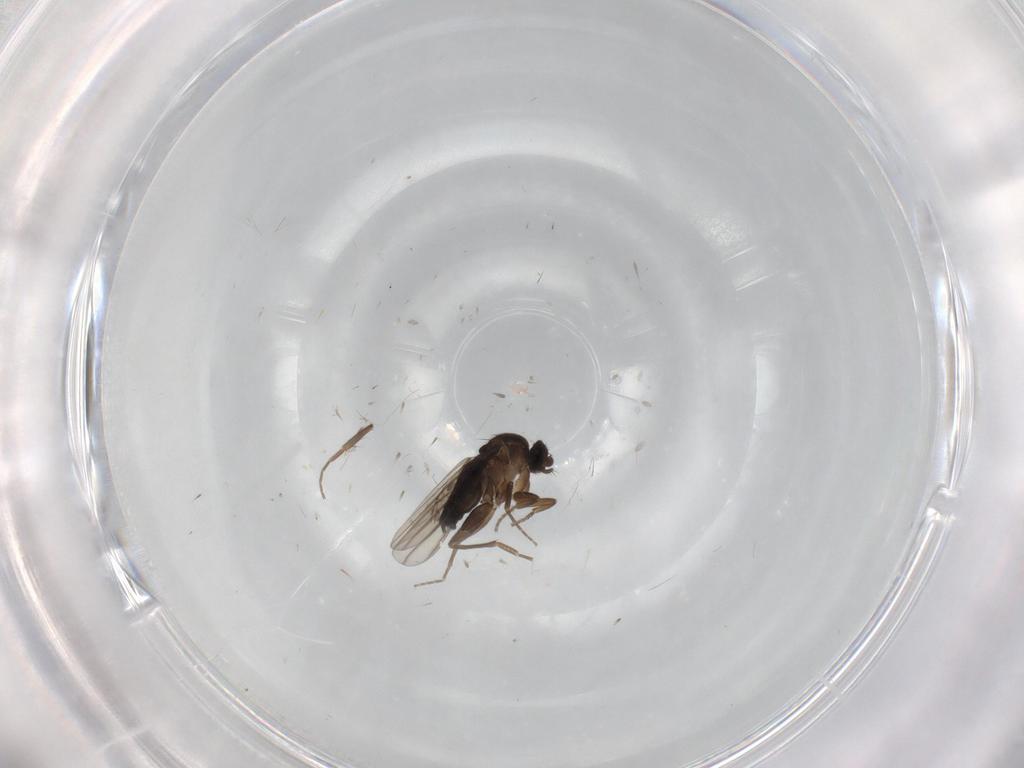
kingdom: Animalia
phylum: Arthropoda
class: Insecta
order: Diptera
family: Phoridae
